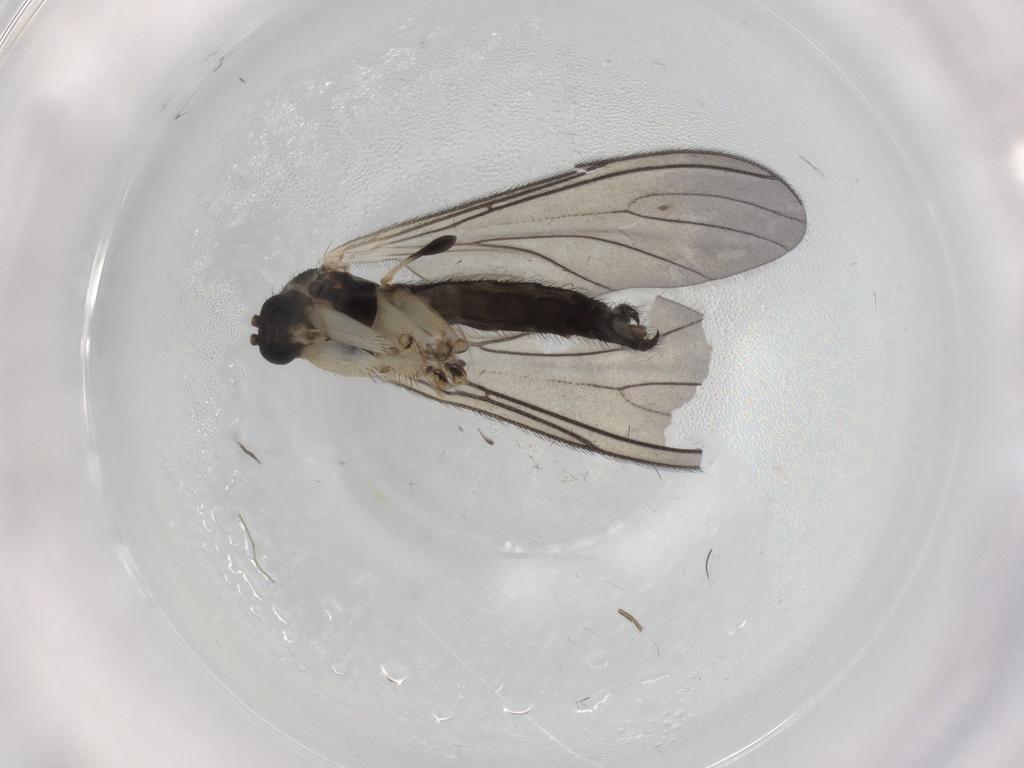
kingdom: Animalia
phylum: Arthropoda
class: Insecta
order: Diptera
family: Sciaridae
